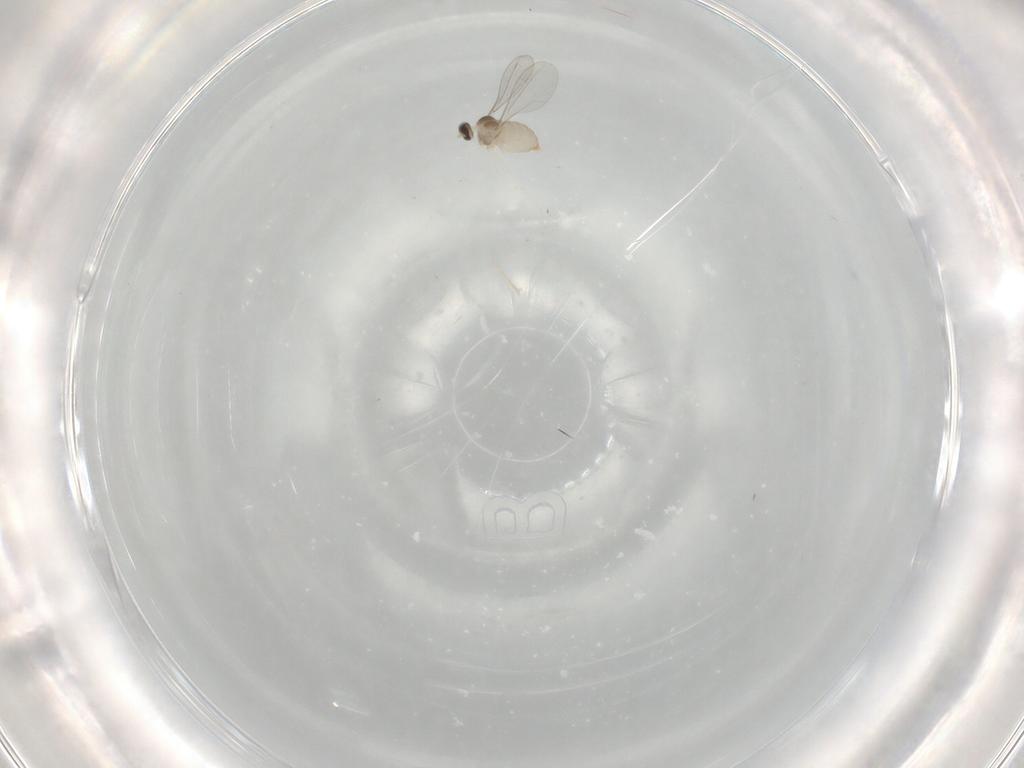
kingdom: Animalia
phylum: Arthropoda
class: Insecta
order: Diptera
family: Cecidomyiidae
